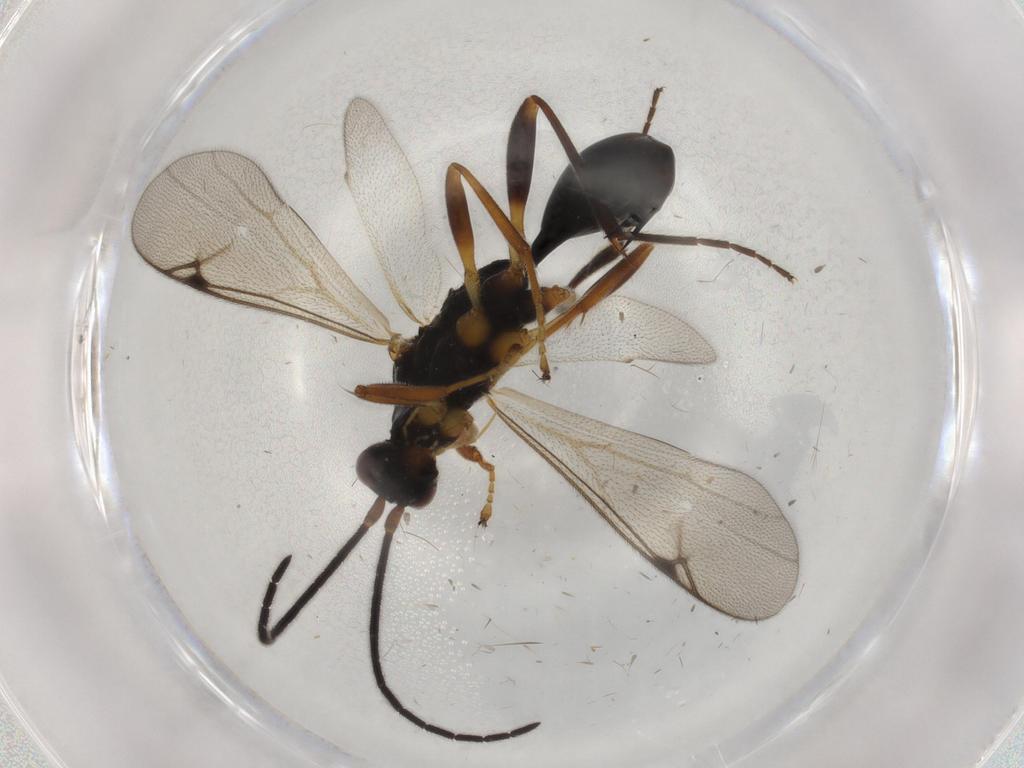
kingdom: Animalia
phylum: Arthropoda
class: Insecta
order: Hymenoptera
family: Proctotrupidae
